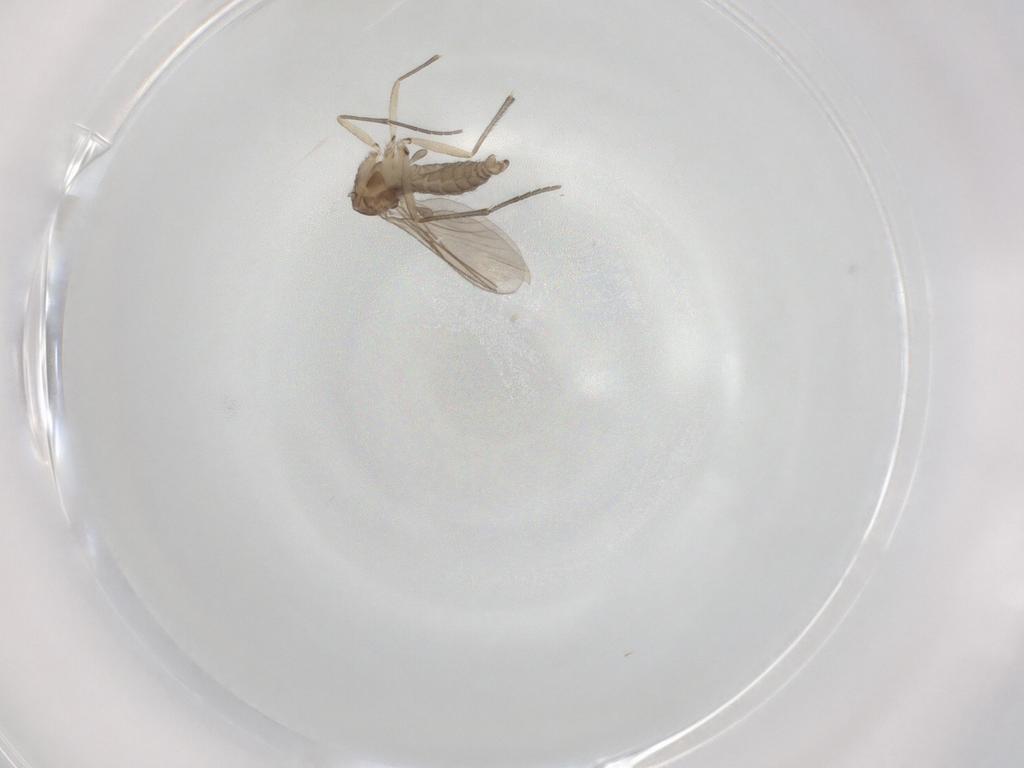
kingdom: Animalia
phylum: Arthropoda
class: Insecta
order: Diptera
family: Sciaridae
